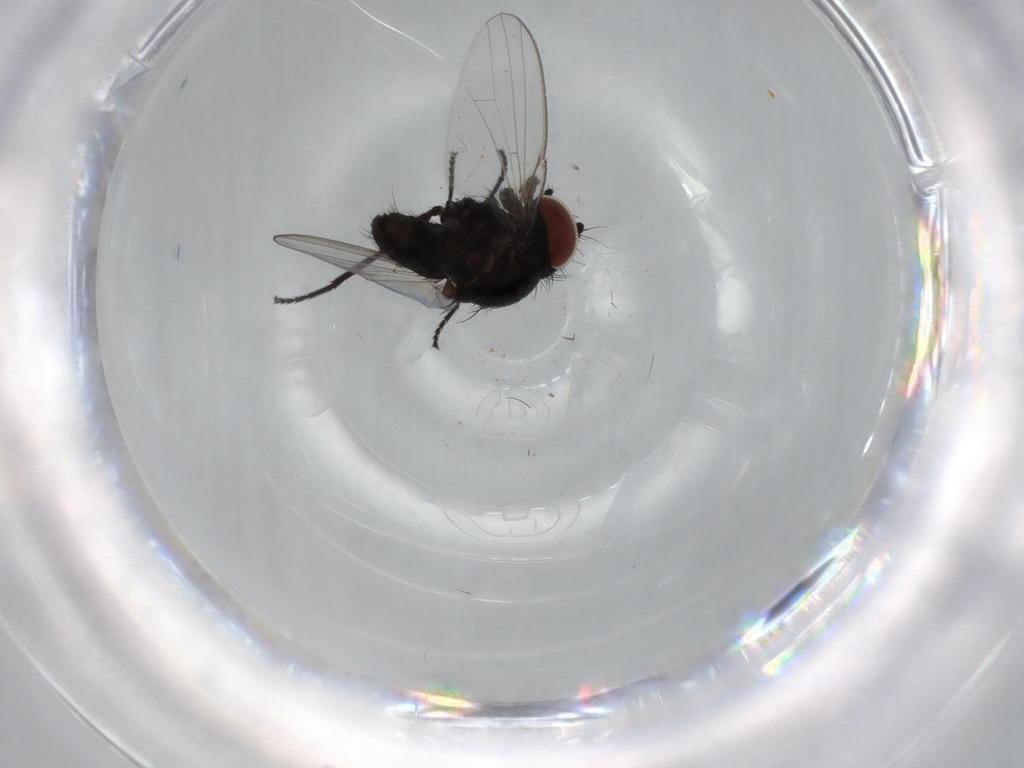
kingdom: Animalia
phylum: Arthropoda
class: Insecta
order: Diptera
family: Milichiidae
